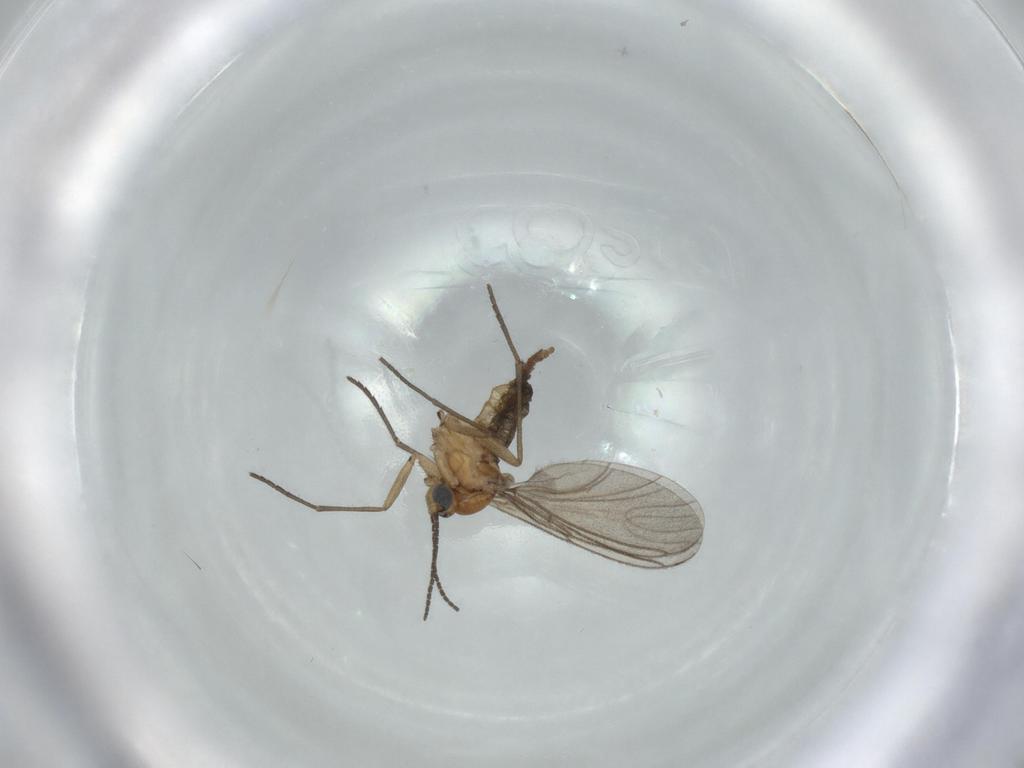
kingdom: Animalia
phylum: Arthropoda
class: Insecta
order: Diptera
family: Sciaridae
